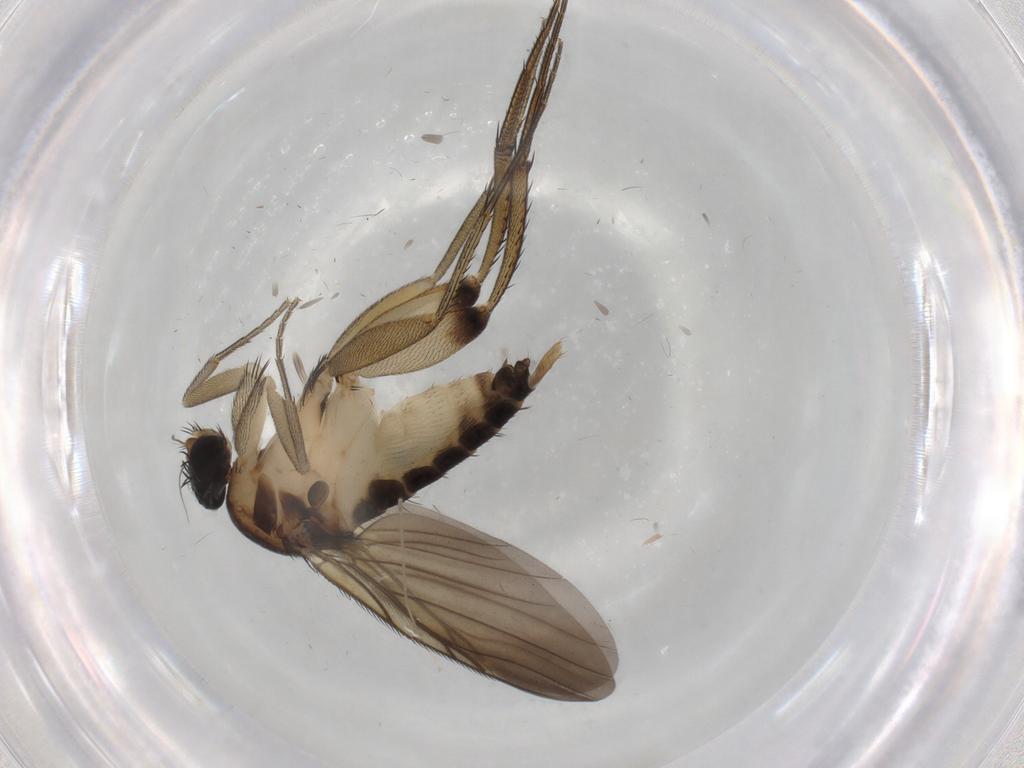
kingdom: Animalia
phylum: Arthropoda
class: Insecta
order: Diptera
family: Phoridae
